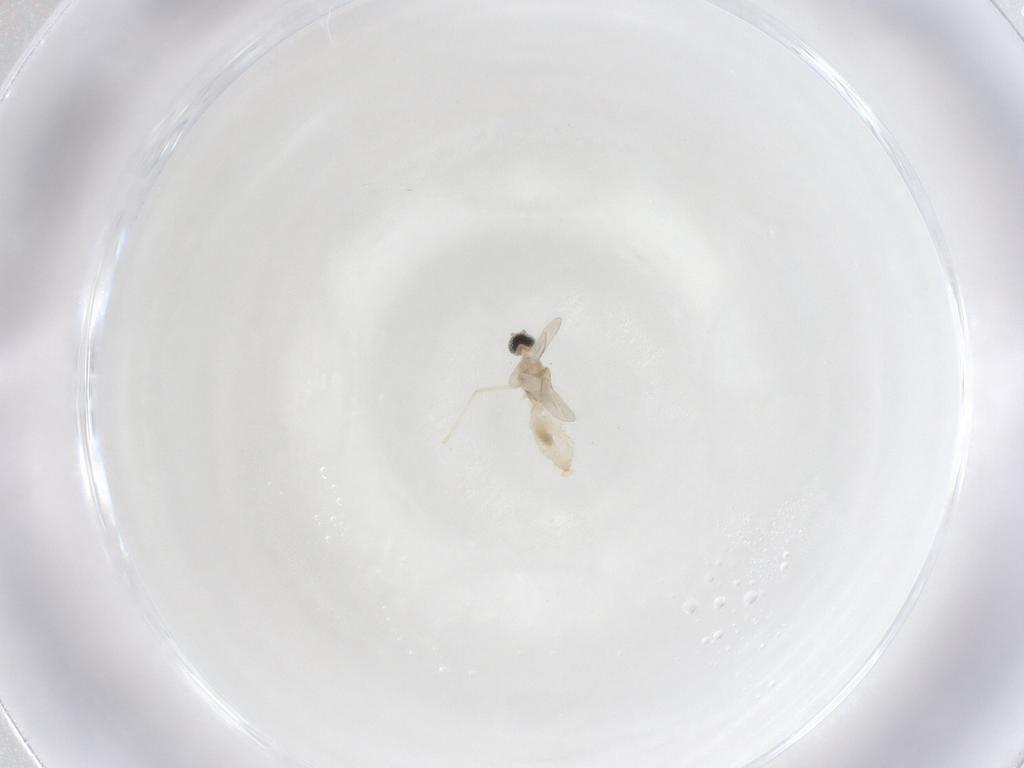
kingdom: Animalia
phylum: Arthropoda
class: Insecta
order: Diptera
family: Cecidomyiidae
